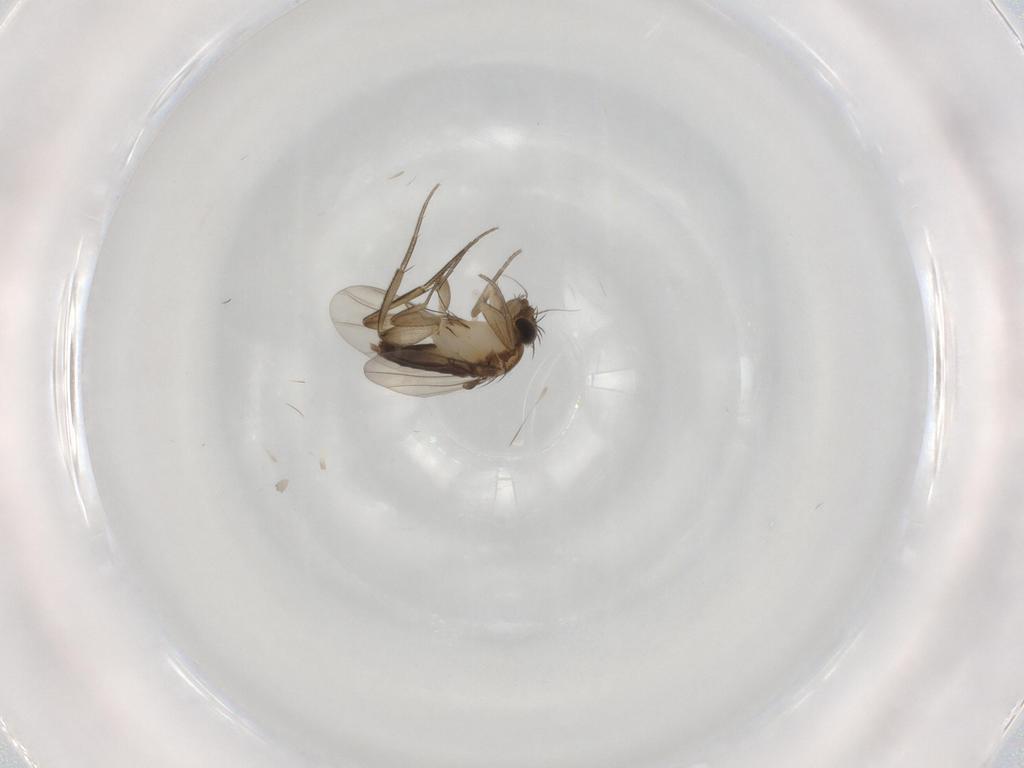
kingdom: Animalia
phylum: Arthropoda
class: Insecta
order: Diptera
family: Phoridae
